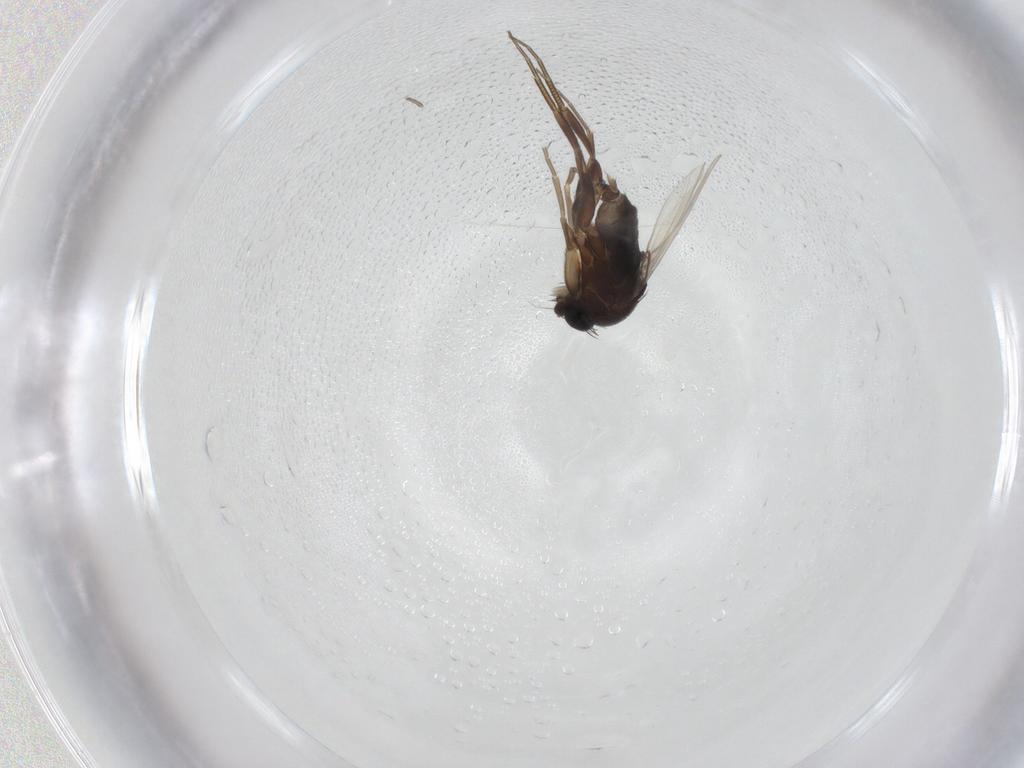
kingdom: Animalia
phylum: Arthropoda
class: Insecta
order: Diptera
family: Phoridae
